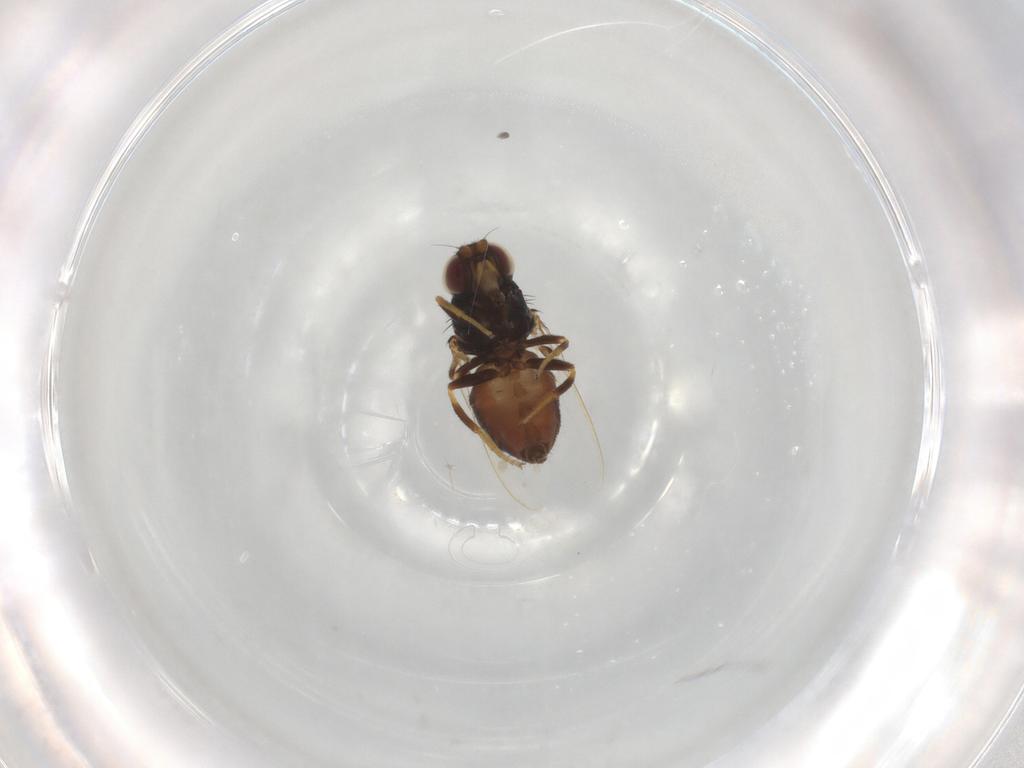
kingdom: Animalia
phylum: Arthropoda
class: Insecta
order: Diptera
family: Chloropidae
